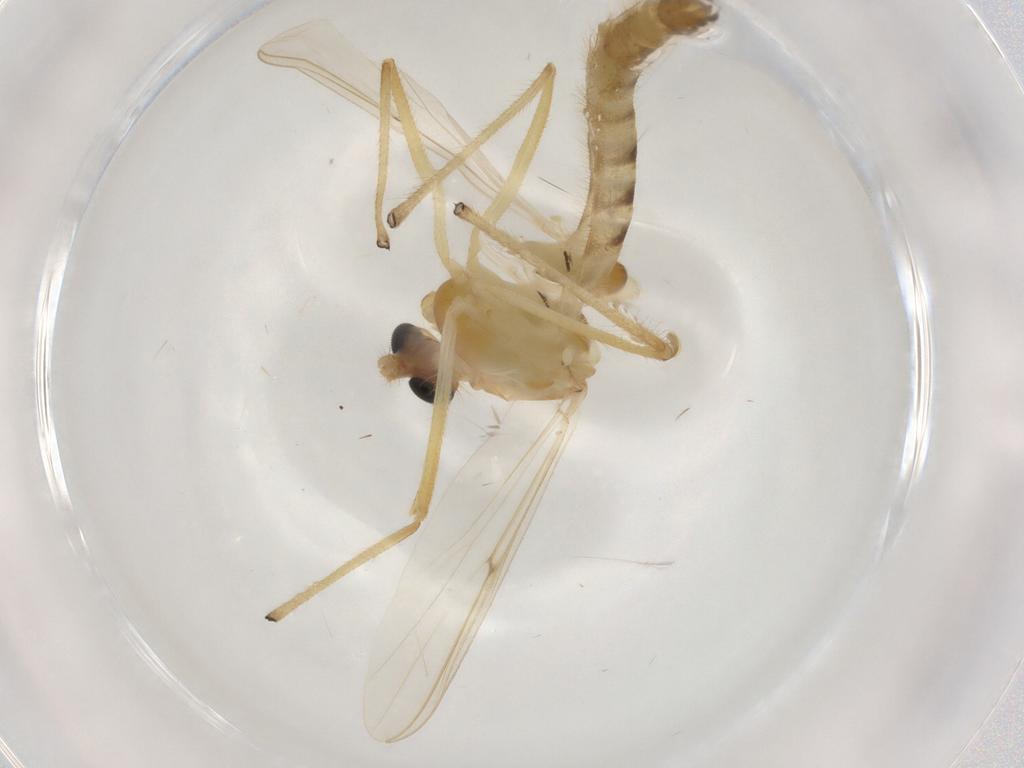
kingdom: Animalia
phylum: Arthropoda
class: Insecta
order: Diptera
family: Cecidomyiidae
